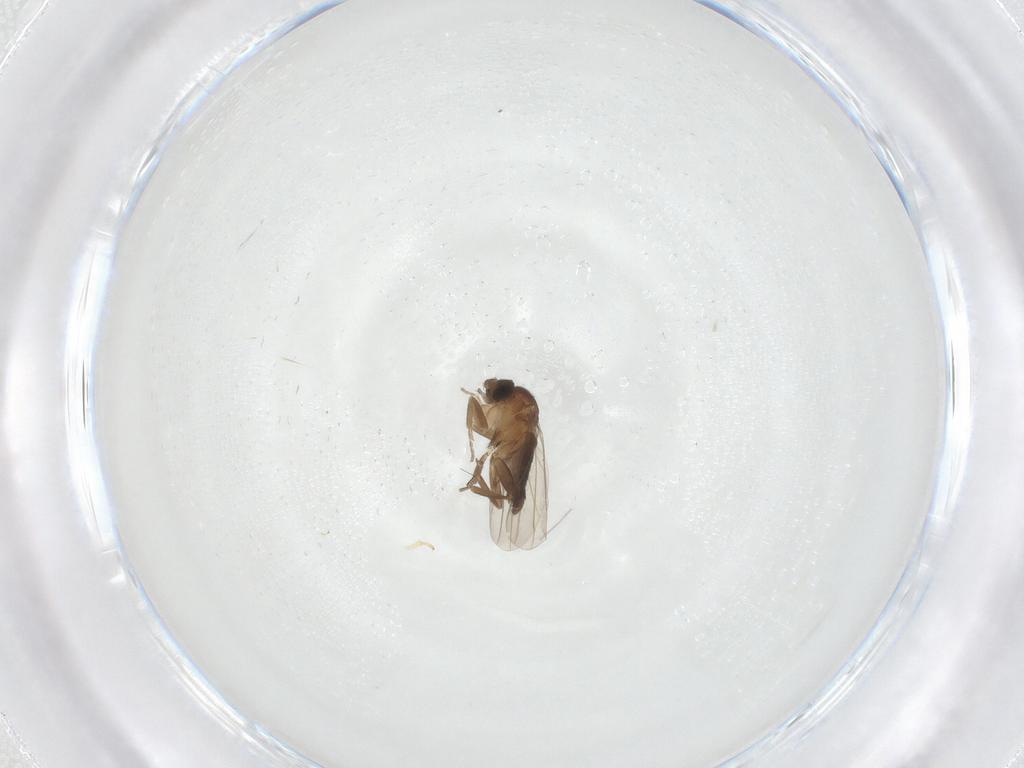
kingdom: Animalia
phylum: Arthropoda
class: Insecta
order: Diptera
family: Phoridae
